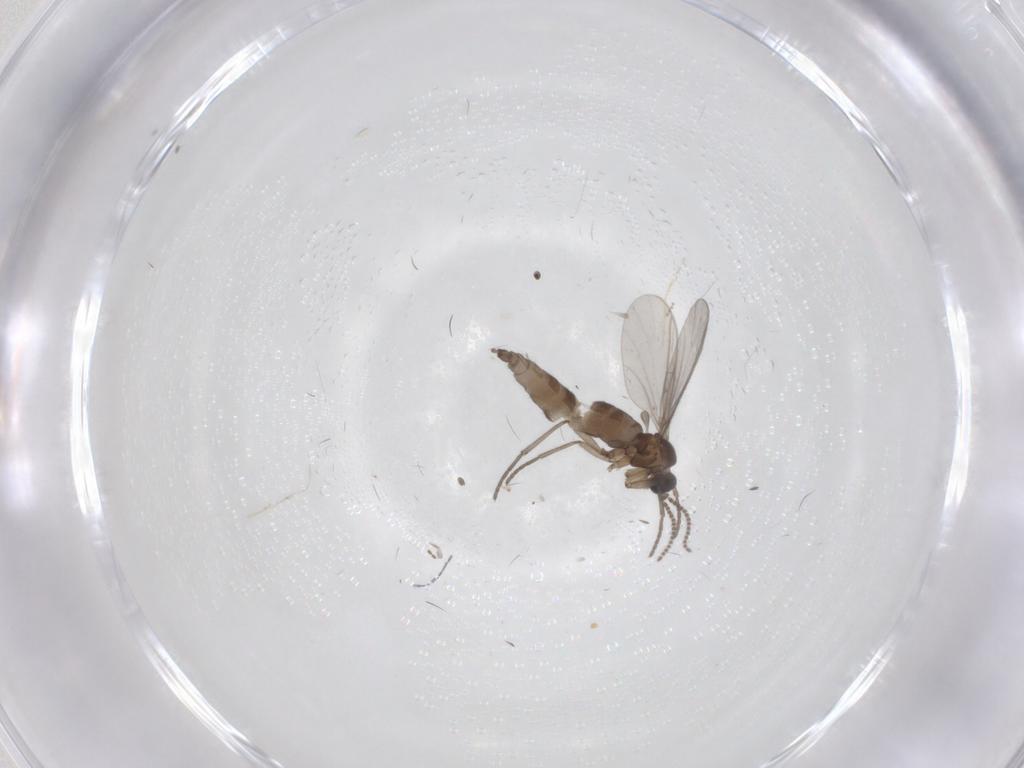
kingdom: Animalia
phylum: Arthropoda
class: Insecta
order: Diptera
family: Cecidomyiidae
